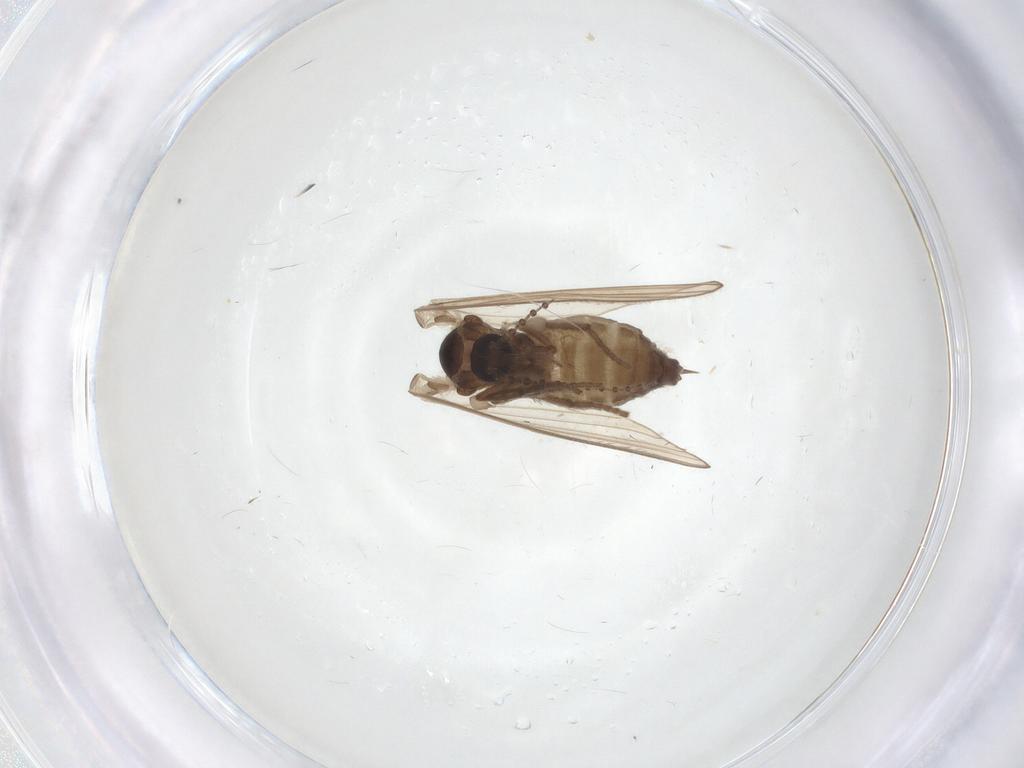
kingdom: Animalia
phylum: Arthropoda
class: Insecta
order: Diptera
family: Psychodidae
